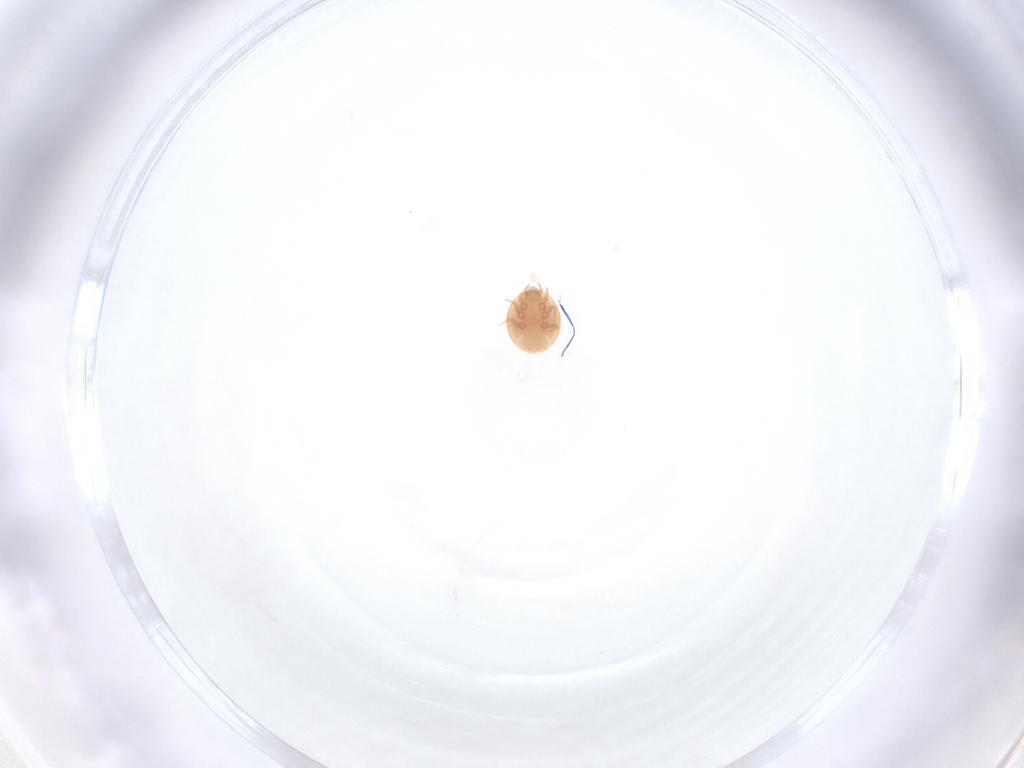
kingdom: Animalia
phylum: Arthropoda
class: Arachnida
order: Mesostigmata
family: Trematuridae
